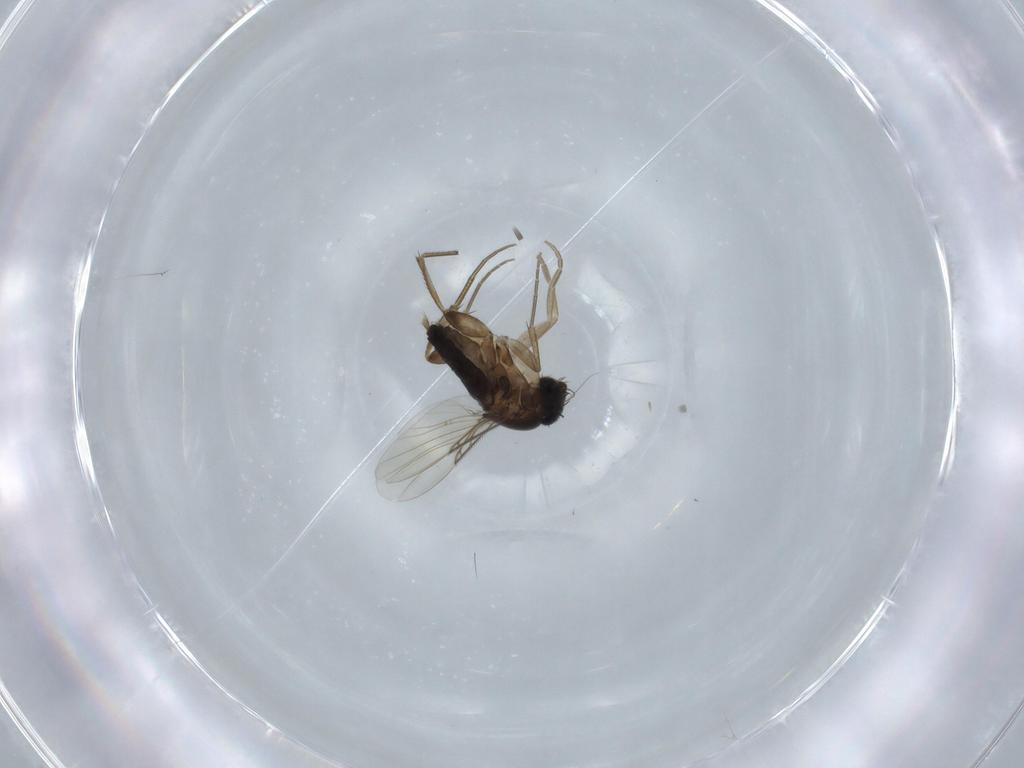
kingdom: Animalia
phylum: Arthropoda
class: Insecta
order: Diptera
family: Phoridae
